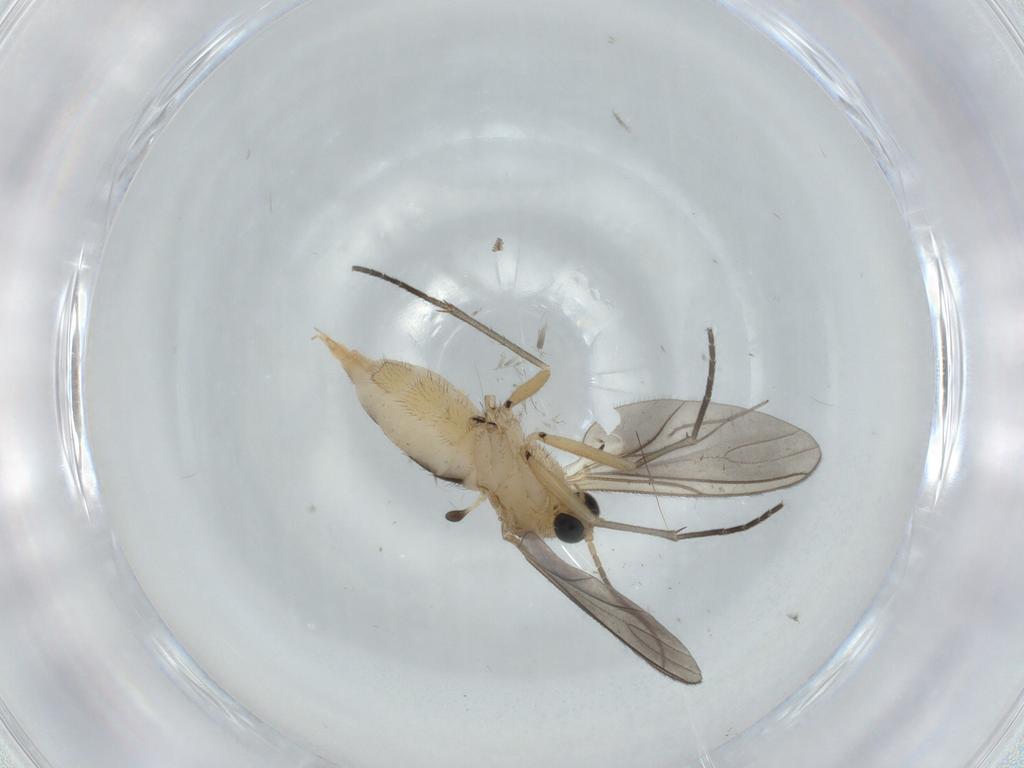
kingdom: Animalia
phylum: Arthropoda
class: Insecta
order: Diptera
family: Sciaridae
